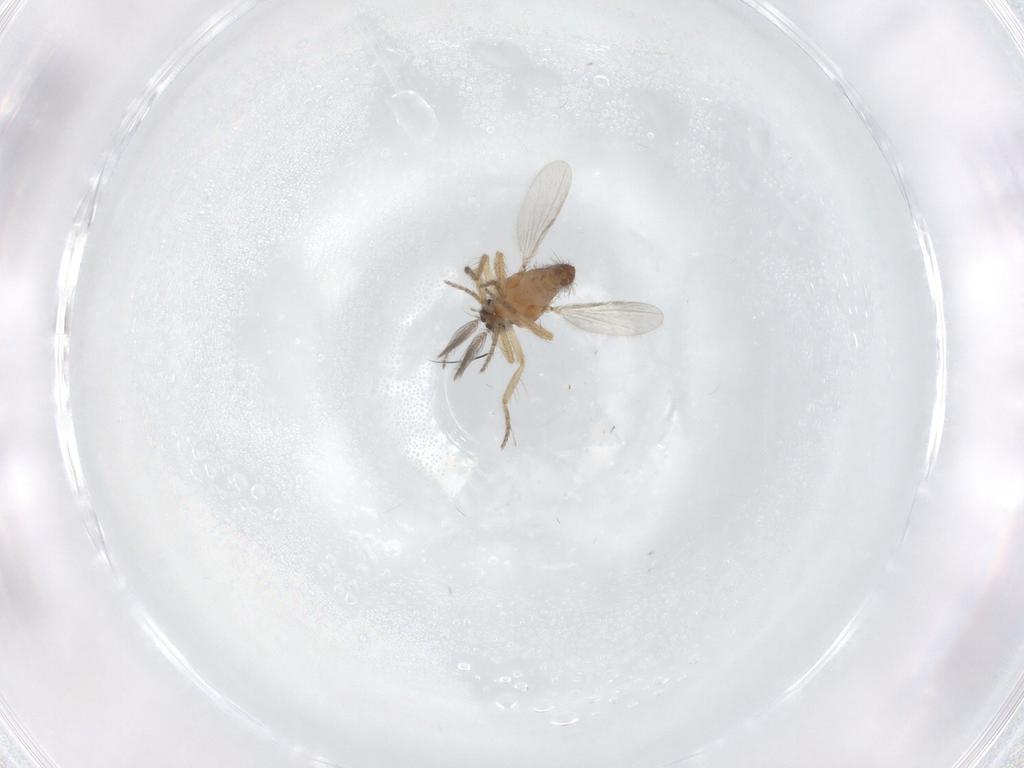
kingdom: Animalia
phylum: Arthropoda
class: Insecta
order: Diptera
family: Ceratopogonidae
